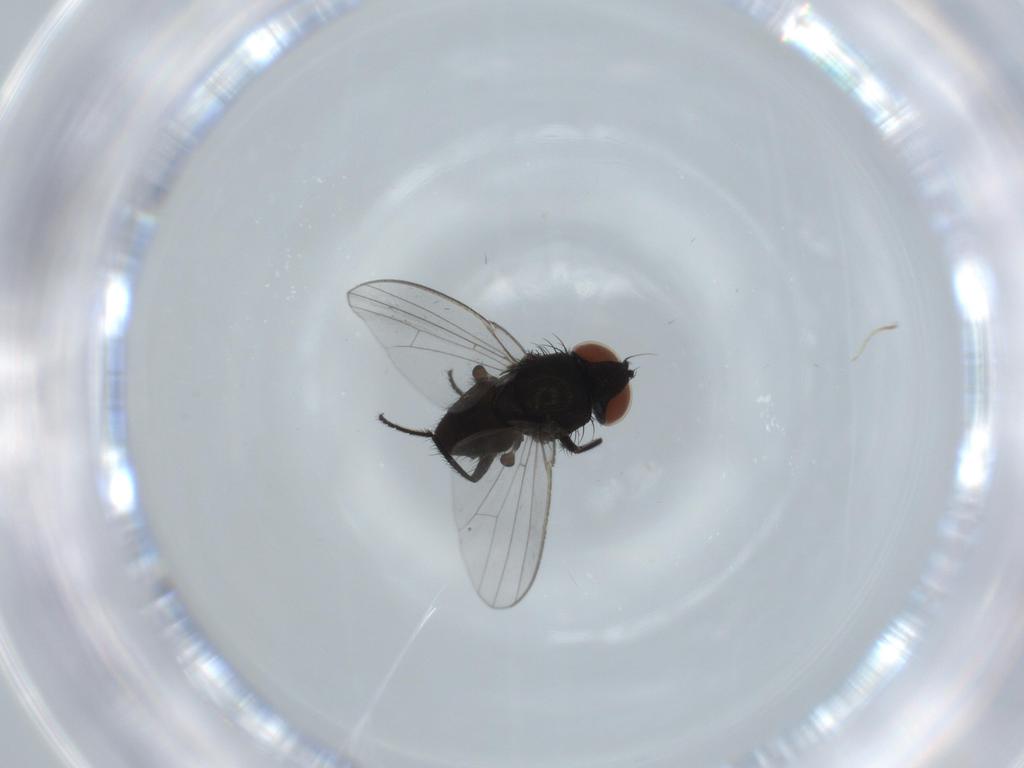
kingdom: Animalia
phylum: Arthropoda
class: Insecta
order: Diptera
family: Milichiidae
